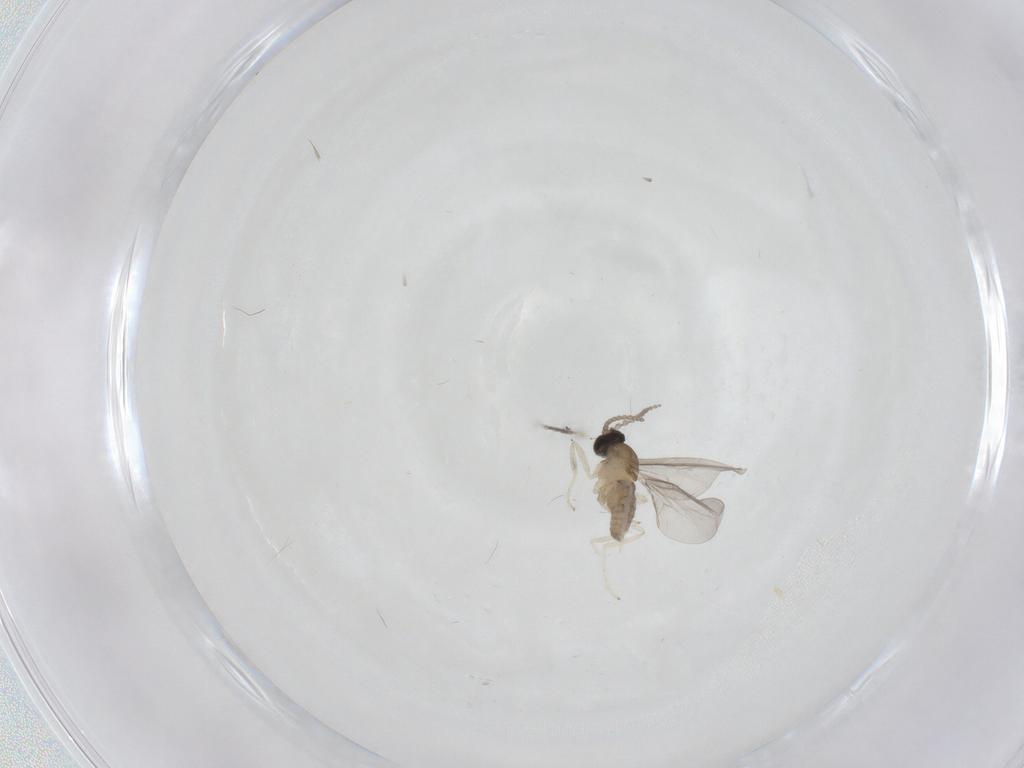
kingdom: Animalia
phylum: Arthropoda
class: Insecta
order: Diptera
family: Cecidomyiidae
